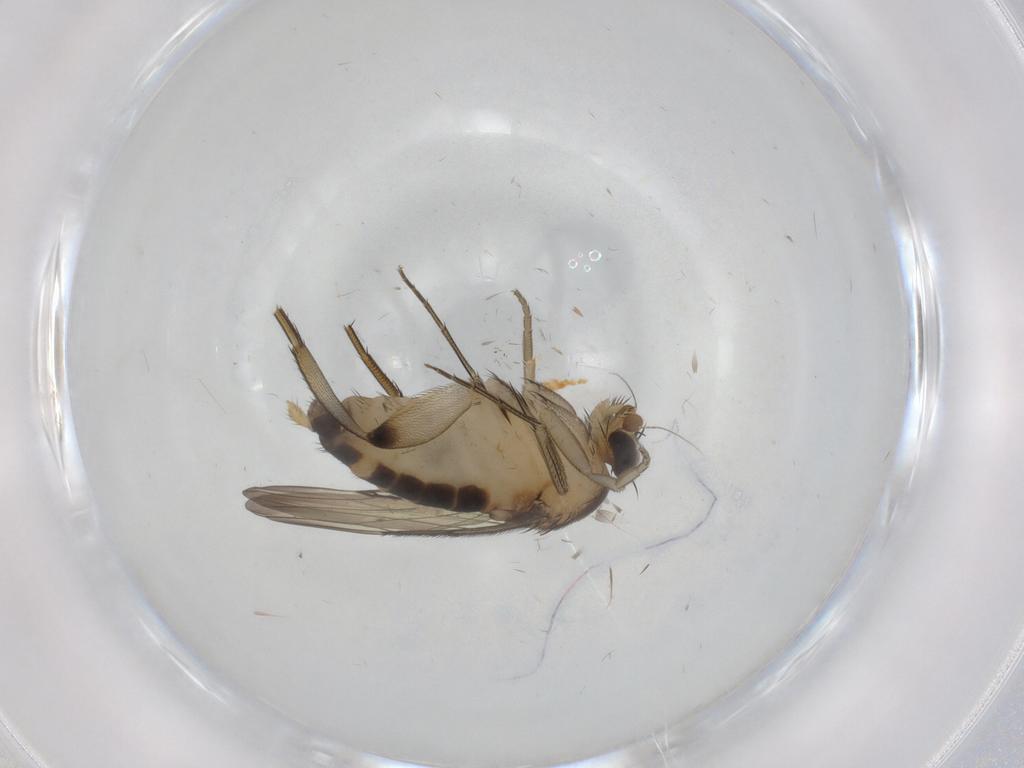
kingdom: Animalia
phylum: Arthropoda
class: Insecta
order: Diptera
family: Phoridae
